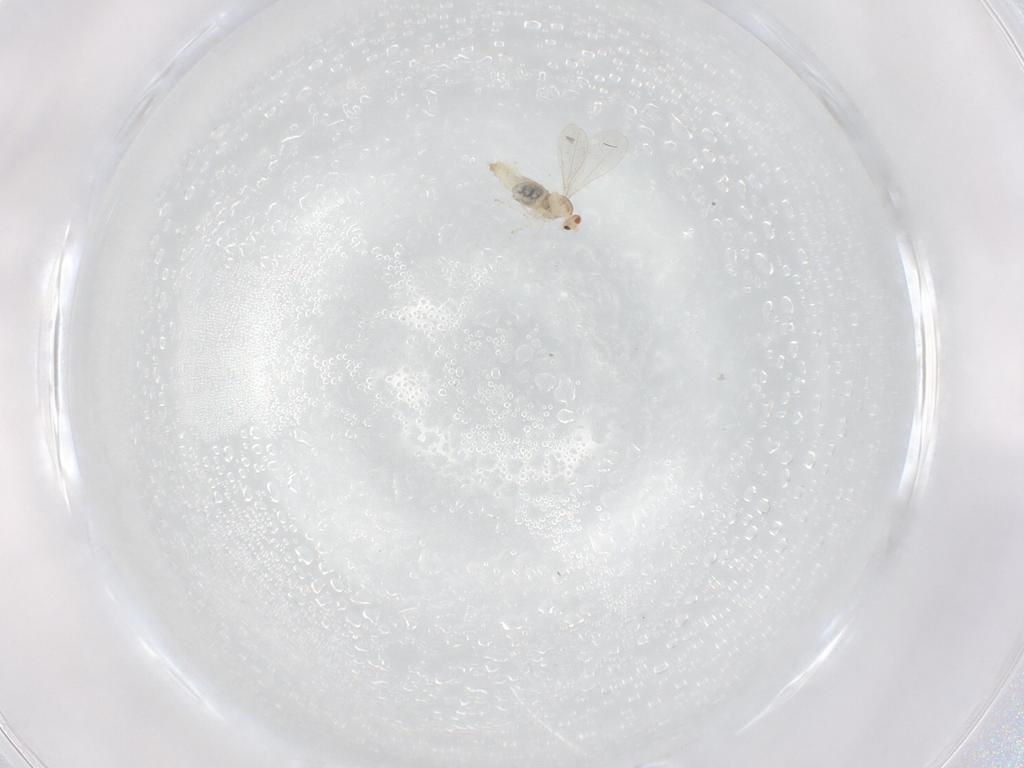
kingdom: Animalia
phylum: Arthropoda
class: Insecta
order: Diptera
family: Cecidomyiidae
